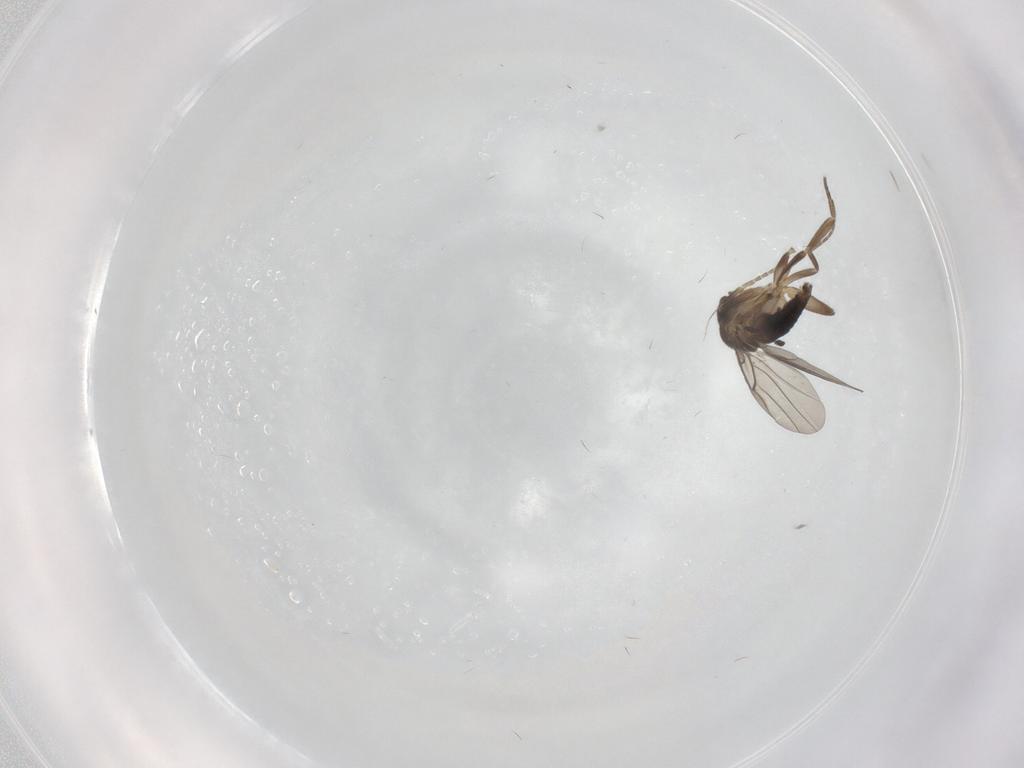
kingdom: Animalia
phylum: Arthropoda
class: Insecta
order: Diptera
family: Phoridae
